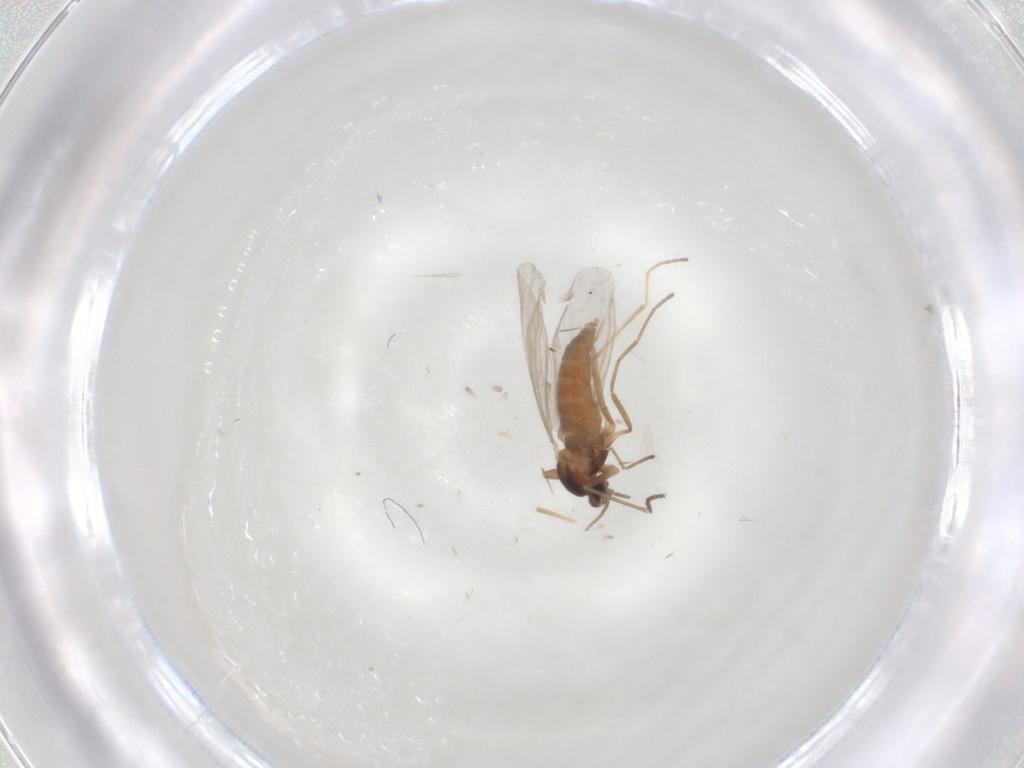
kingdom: Animalia
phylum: Arthropoda
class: Insecta
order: Diptera
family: Cecidomyiidae
